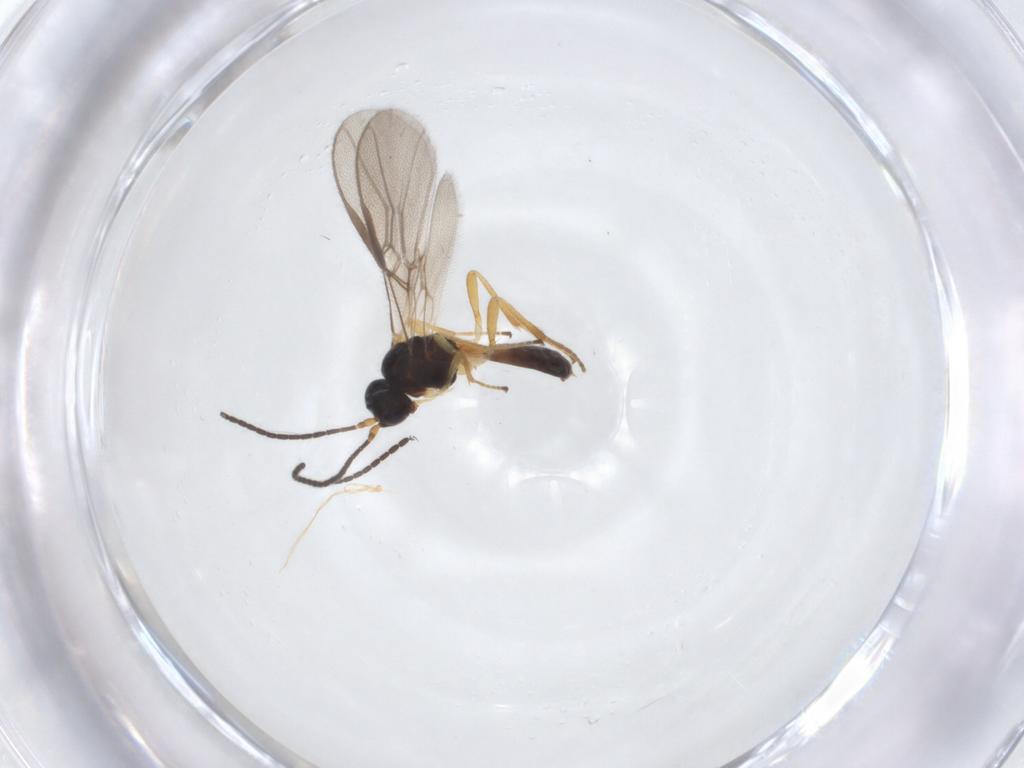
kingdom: Animalia
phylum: Arthropoda
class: Insecta
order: Hymenoptera
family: Braconidae
